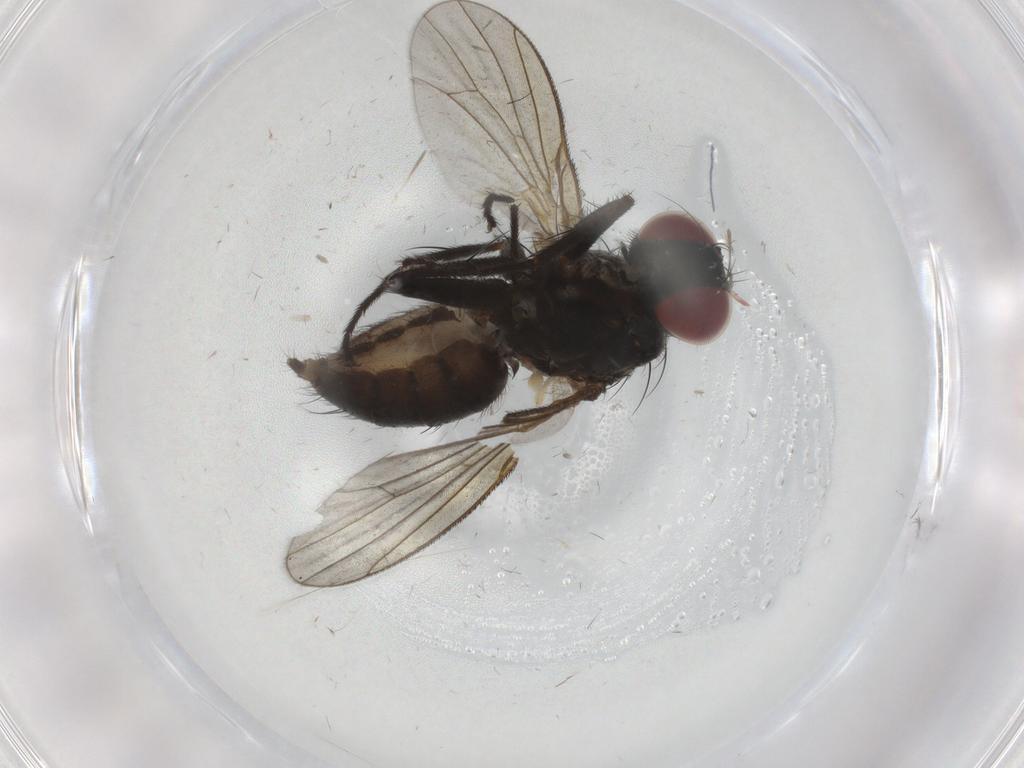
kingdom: Animalia
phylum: Arthropoda
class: Insecta
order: Diptera
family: Muscidae
